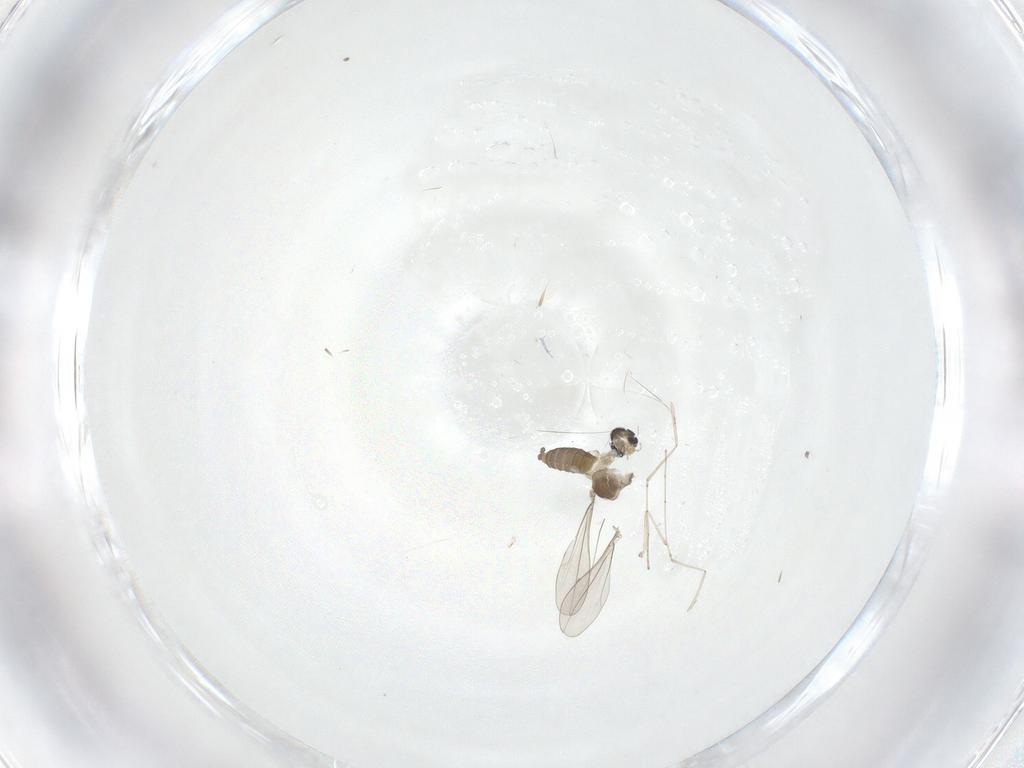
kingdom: Animalia
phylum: Arthropoda
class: Insecta
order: Diptera
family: Cecidomyiidae
